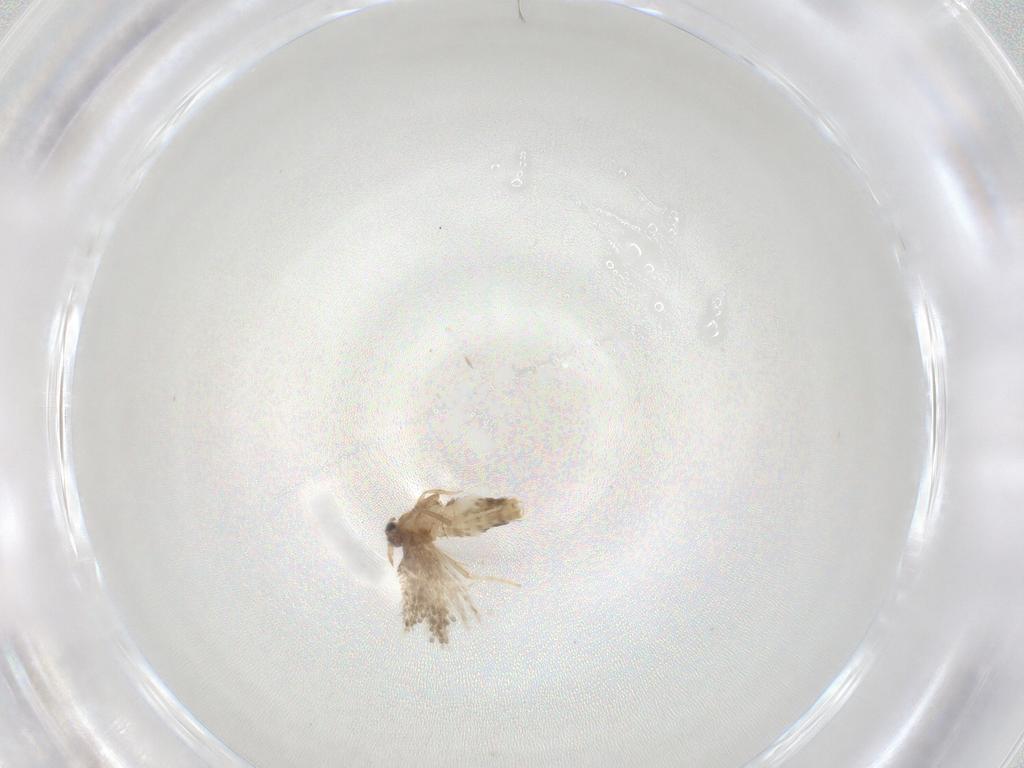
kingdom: Animalia
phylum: Arthropoda
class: Insecta
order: Lepidoptera
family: Nepticulidae
